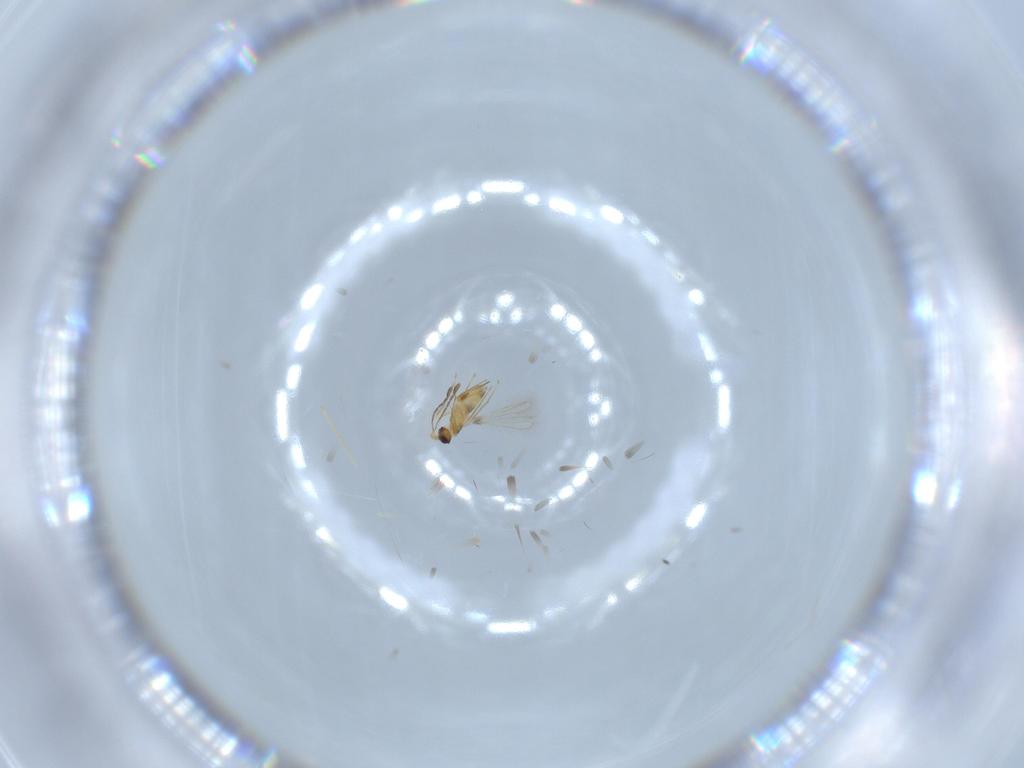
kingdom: Animalia
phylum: Arthropoda
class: Insecta
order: Hymenoptera
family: Mymaridae
